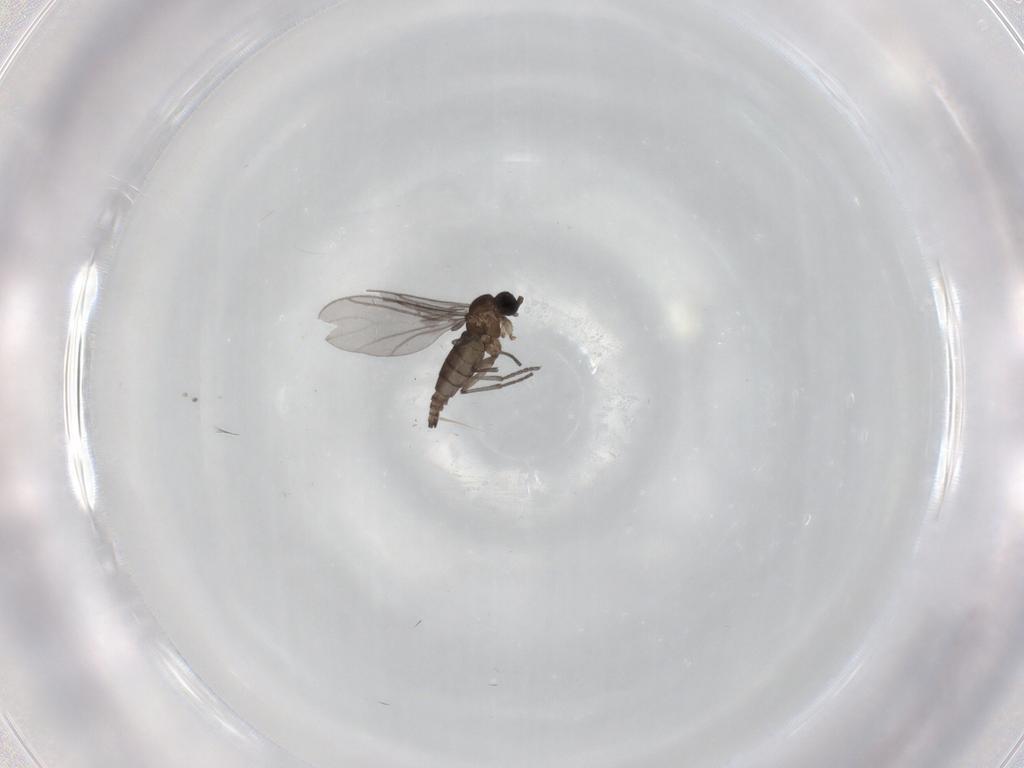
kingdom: Animalia
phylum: Arthropoda
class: Insecta
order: Diptera
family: Sciaridae
